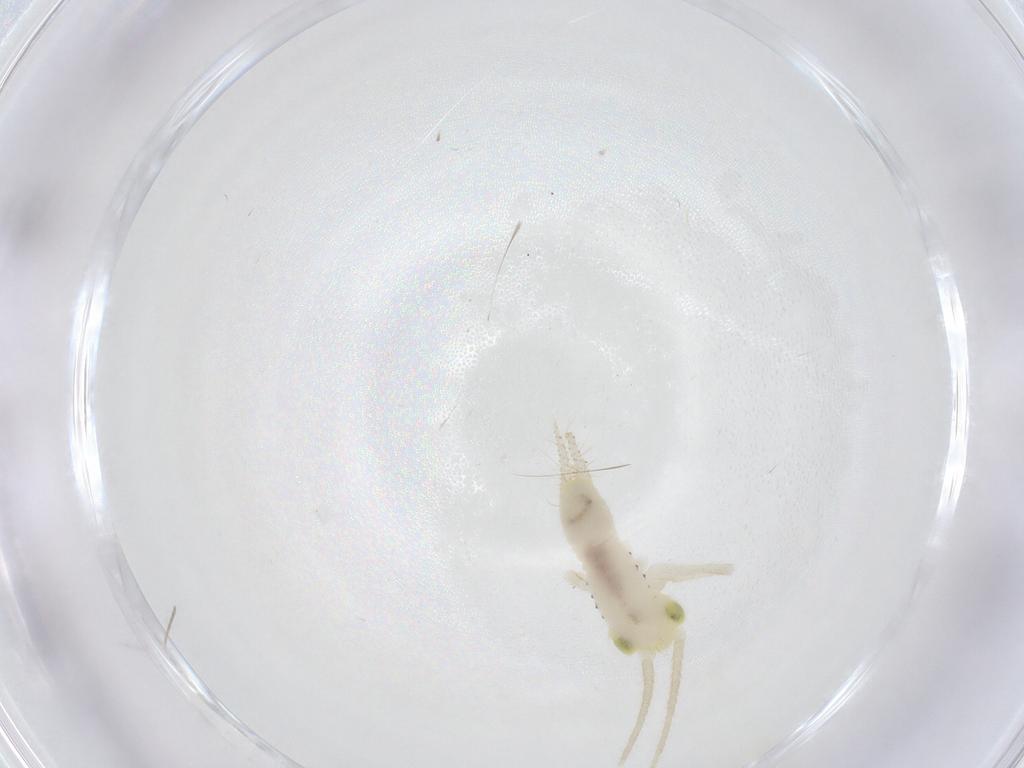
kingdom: Animalia
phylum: Arthropoda
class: Insecta
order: Orthoptera
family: Trigonidiidae
